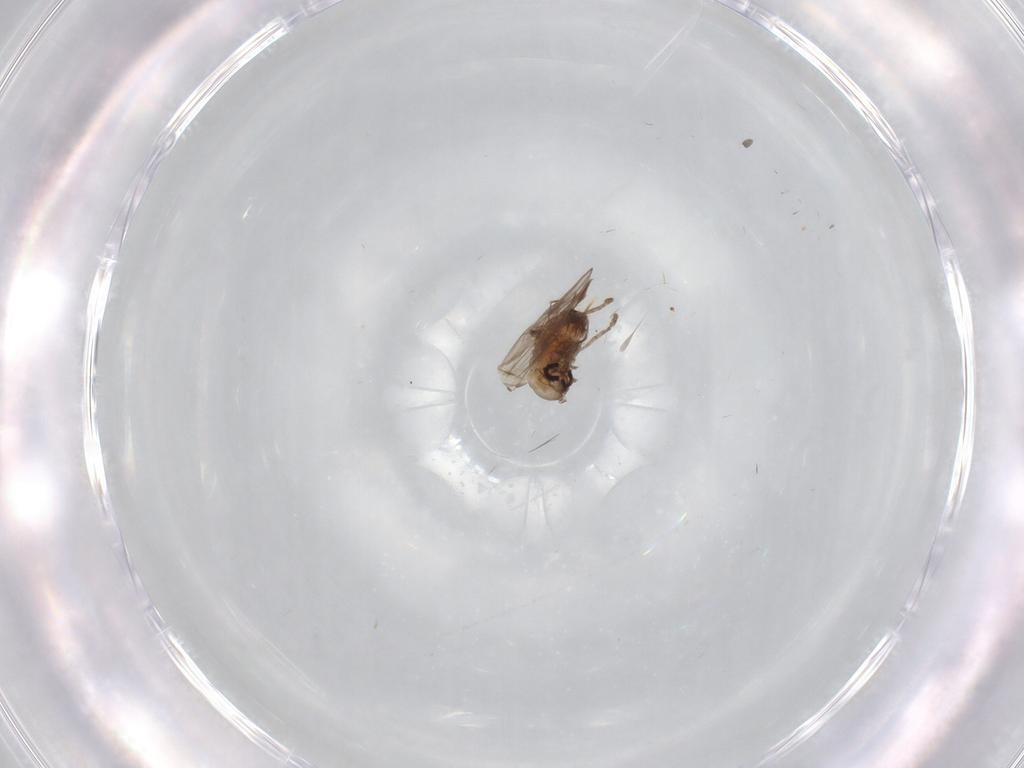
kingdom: Animalia
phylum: Arthropoda
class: Insecta
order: Diptera
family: Psychodidae
